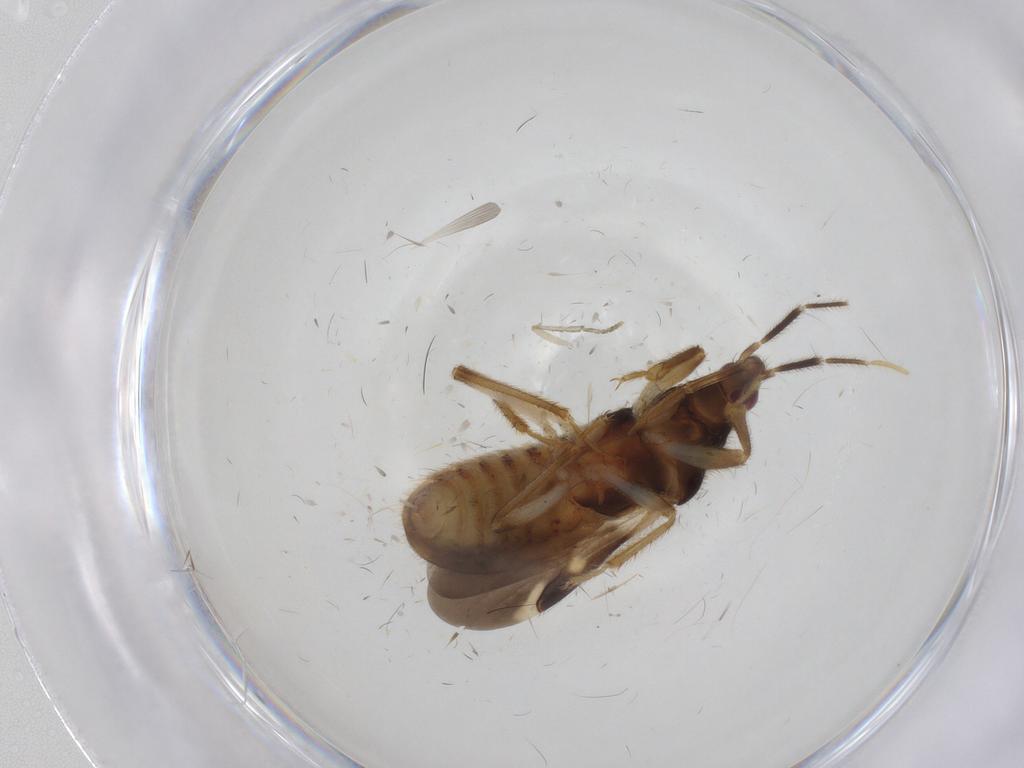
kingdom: Animalia
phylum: Arthropoda
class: Insecta
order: Hemiptera
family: Nabidae
